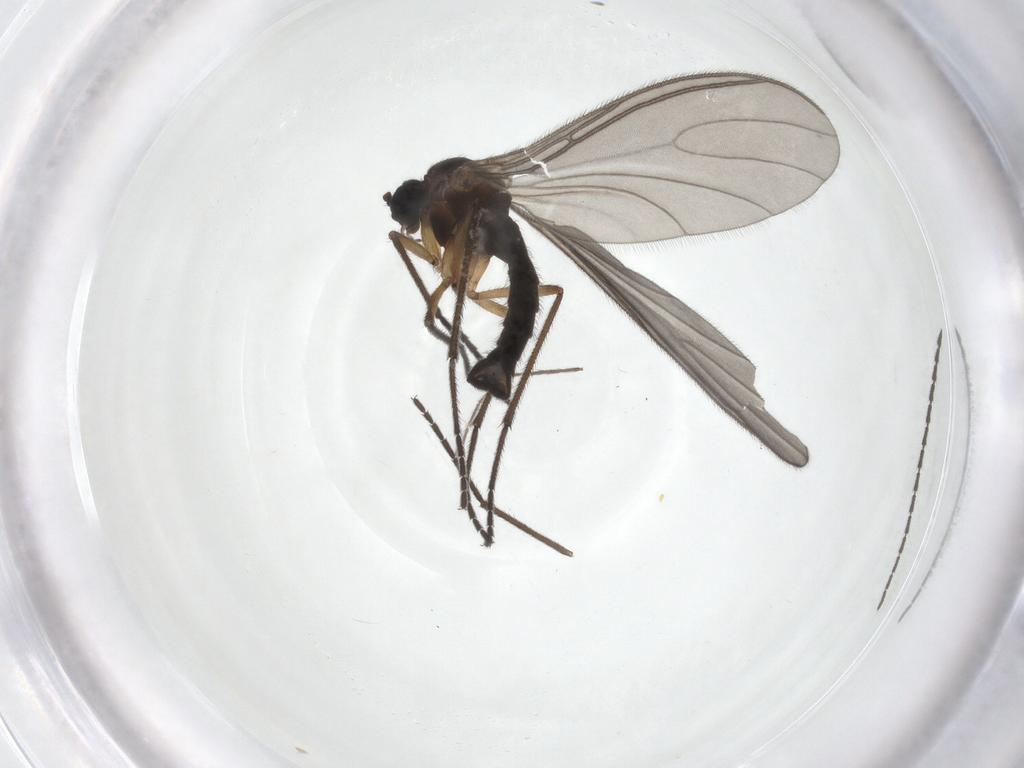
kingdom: Animalia
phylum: Arthropoda
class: Insecta
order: Diptera
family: Sciaridae
